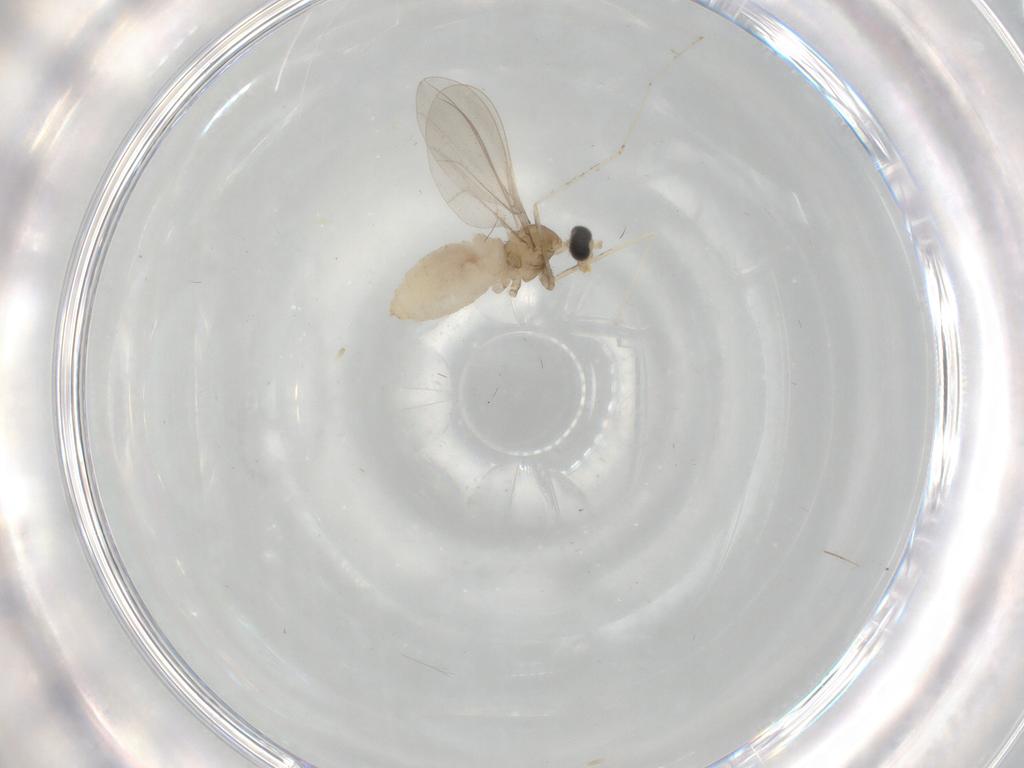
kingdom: Animalia
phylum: Arthropoda
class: Insecta
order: Diptera
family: Cecidomyiidae
